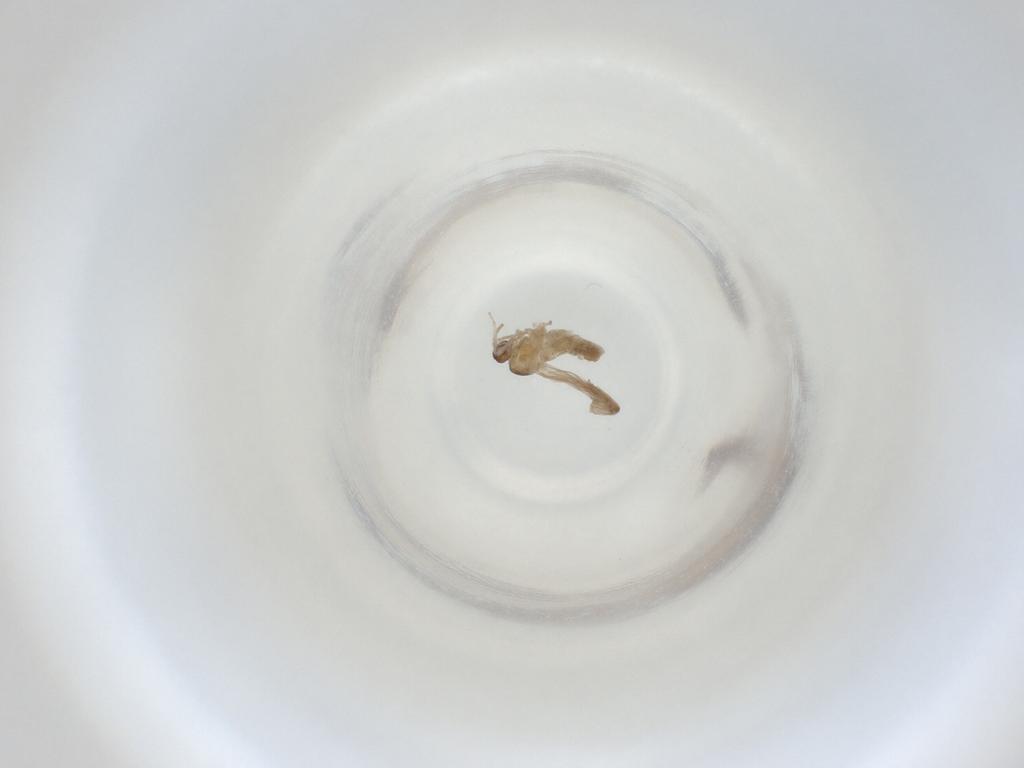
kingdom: Animalia
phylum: Arthropoda
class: Insecta
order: Diptera
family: Cecidomyiidae
